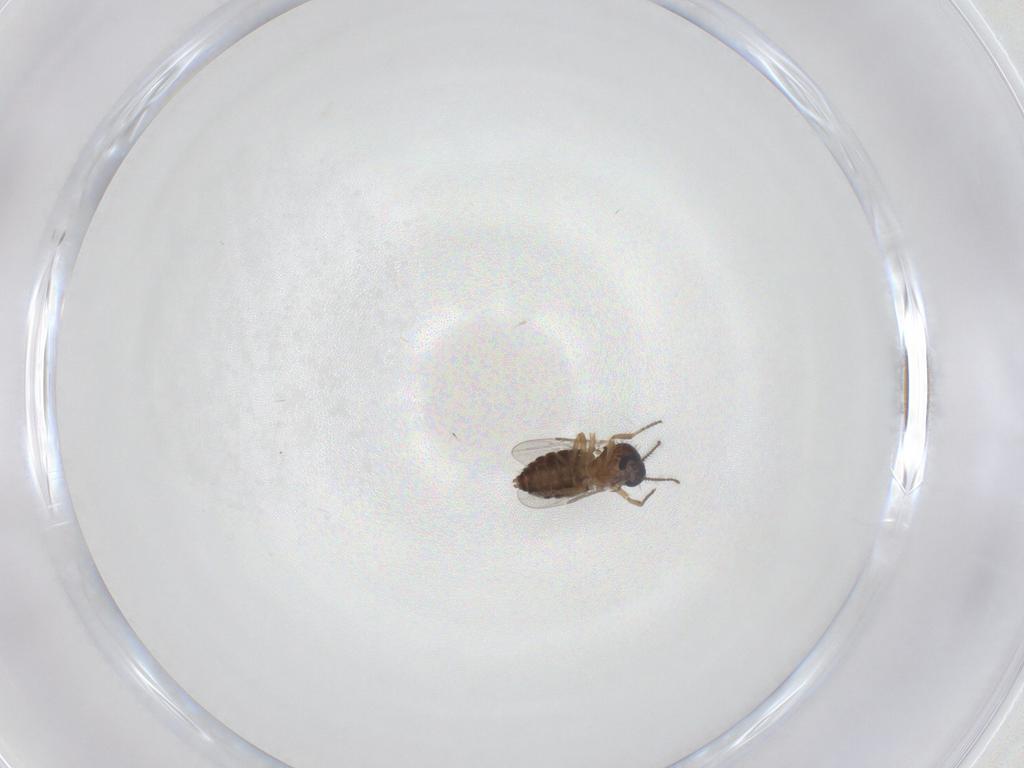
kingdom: Animalia
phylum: Arthropoda
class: Insecta
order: Diptera
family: Ceratopogonidae
